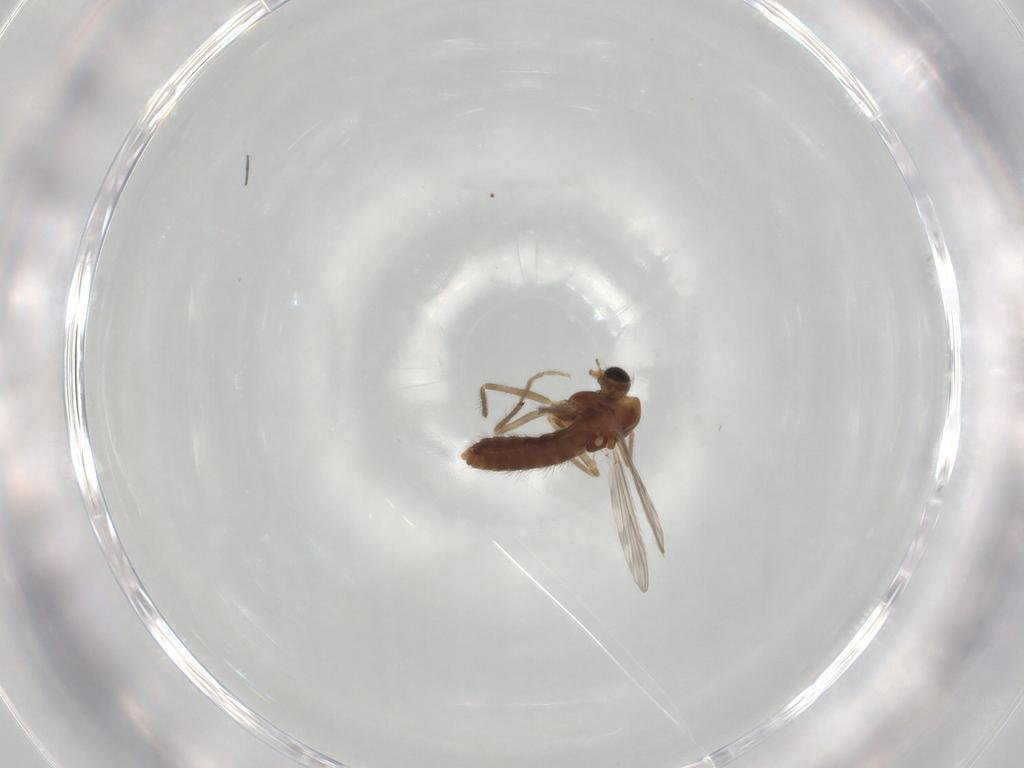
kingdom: Animalia
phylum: Arthropoda
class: Insecta
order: Diptera
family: Chironomidae
